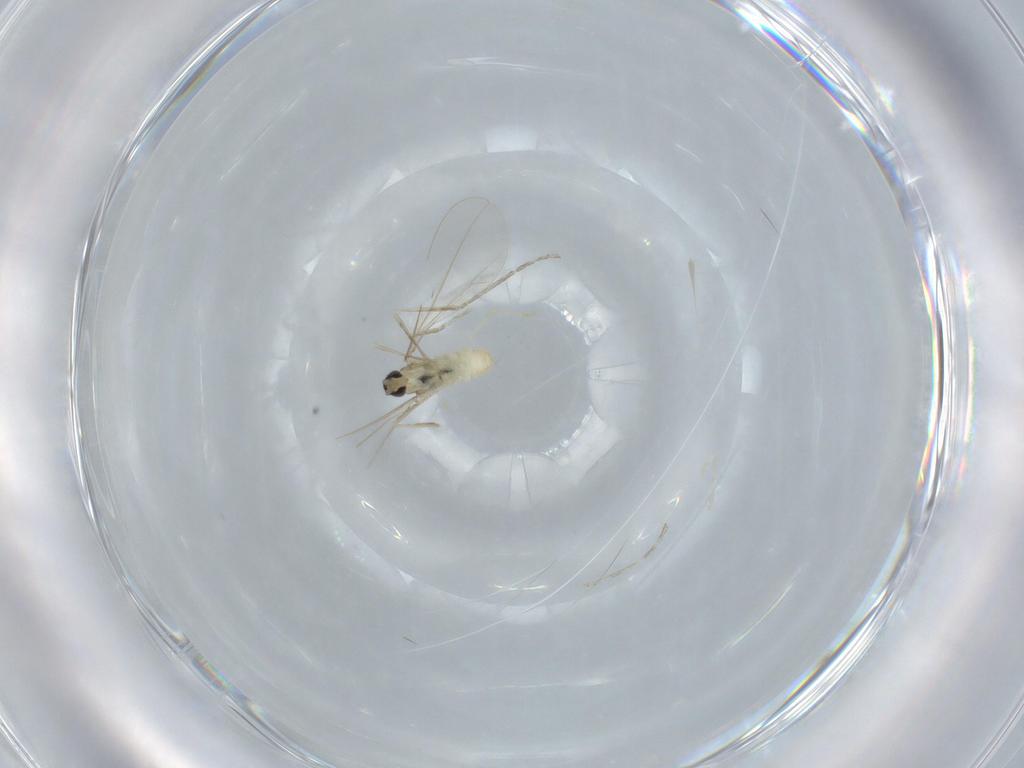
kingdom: Animalia
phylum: Arthropoda
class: Insecta
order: Diptera
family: Cecidomyiidae
